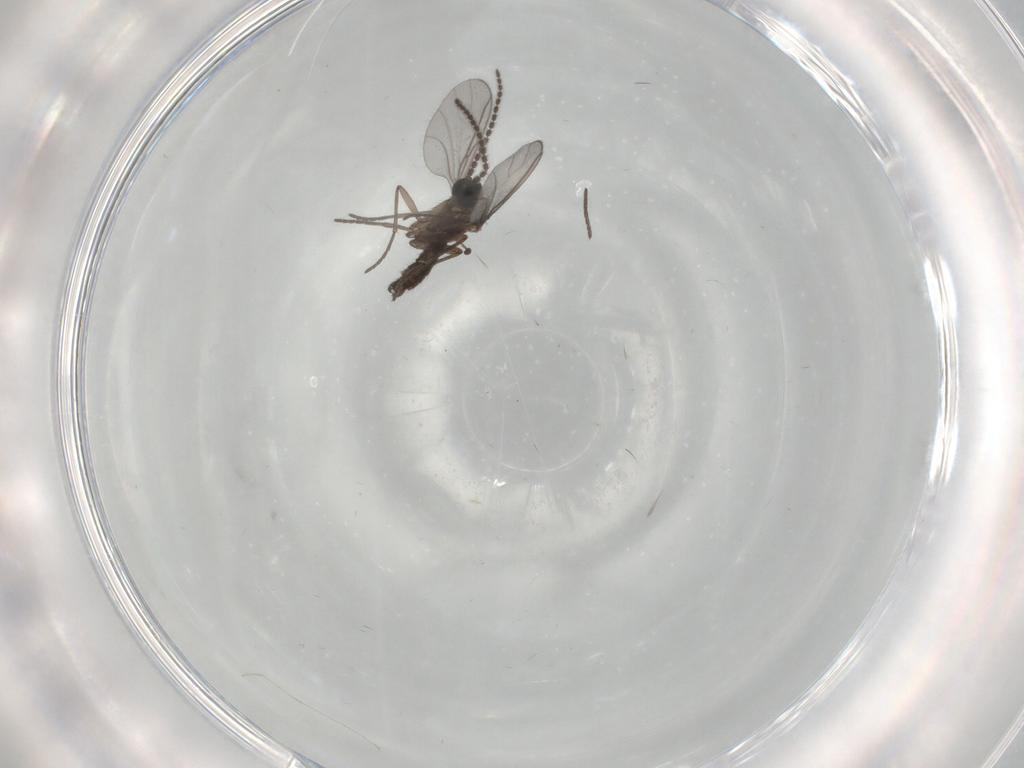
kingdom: Animalia
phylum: Arthropoda
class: Insecta
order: Diptera
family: Cecidomyiidae
